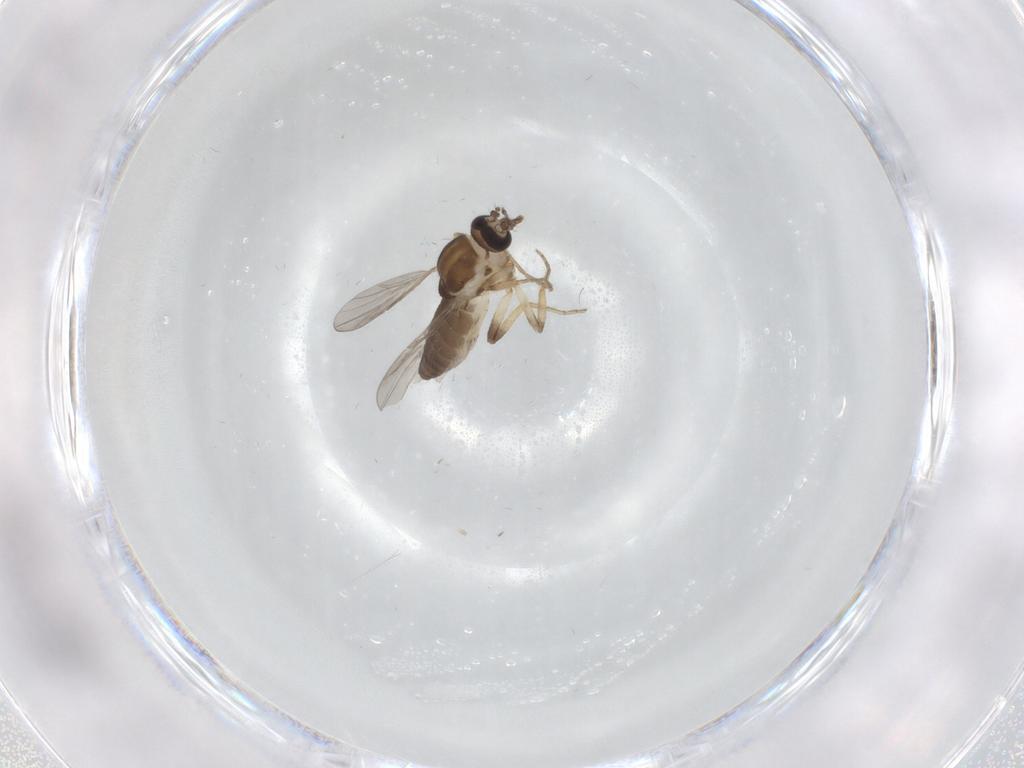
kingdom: Animalia
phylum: Arthropoda
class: Insecta
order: Diptera
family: Ceratopogonidae
